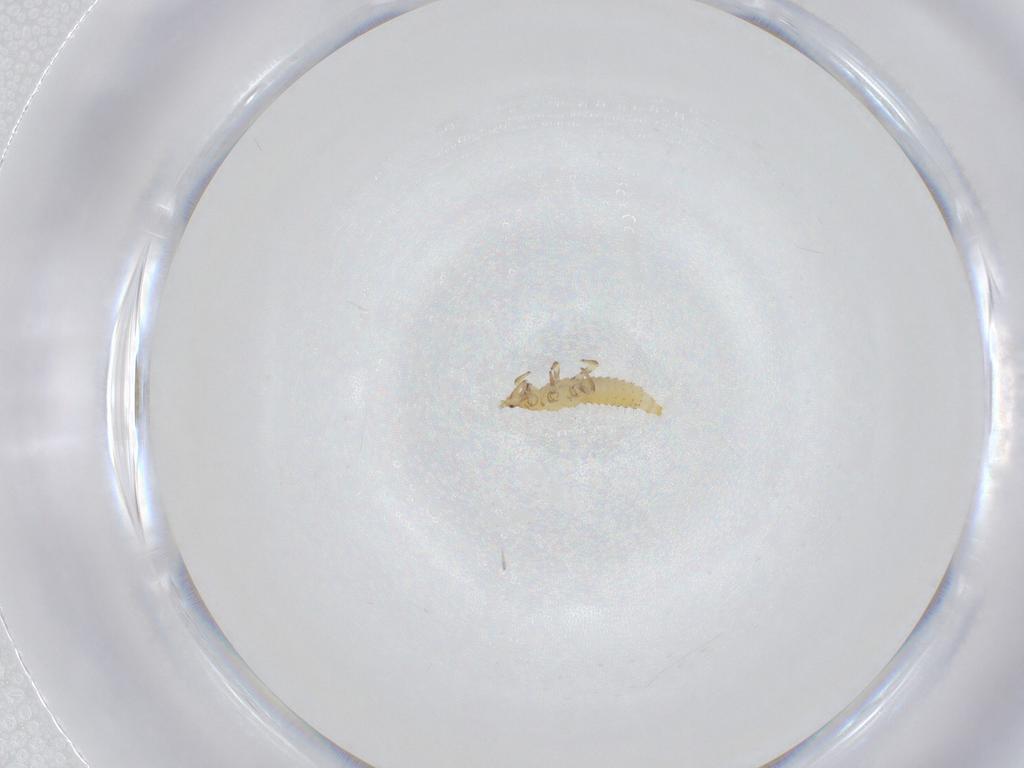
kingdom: Animalia
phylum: Arthropoda
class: Insecta
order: Thysanoptera
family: Thripidae
